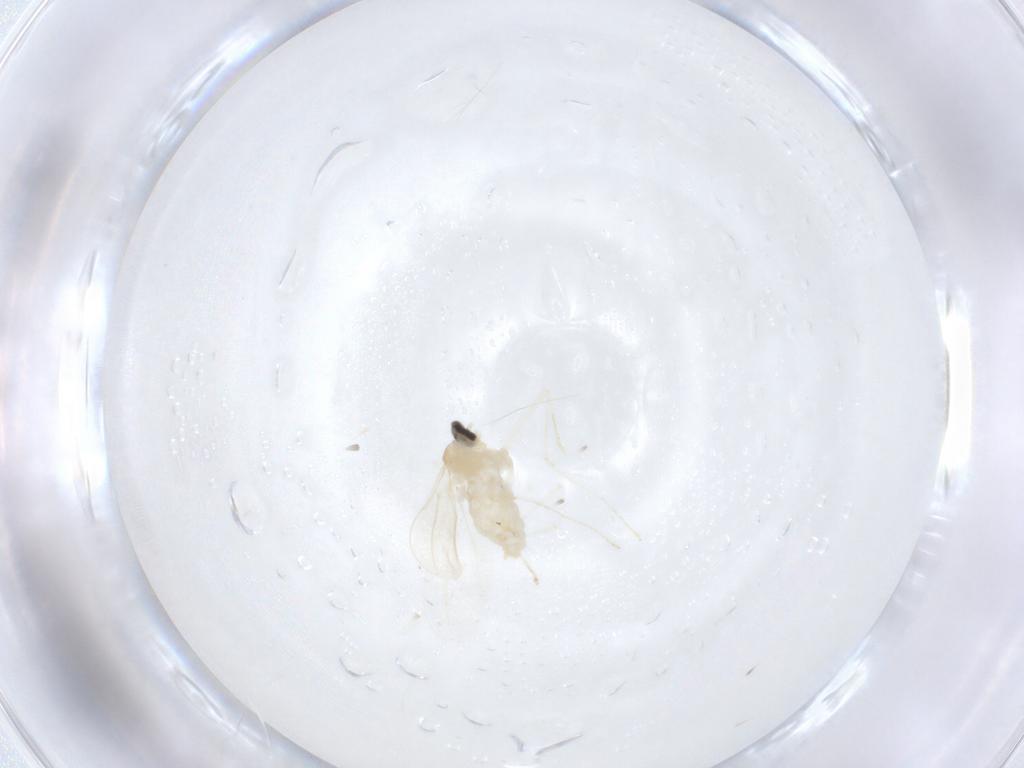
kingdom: Animalia
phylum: Arthropoda
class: Insecta
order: Diptera
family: Cecidomyiidae
